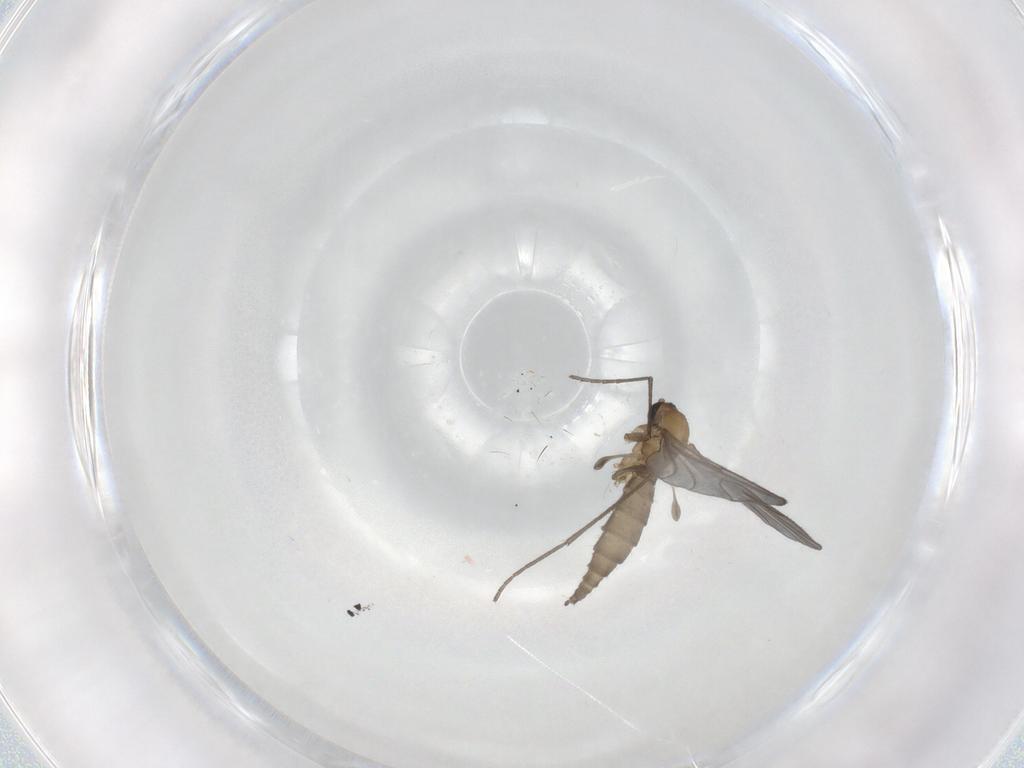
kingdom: Animalia
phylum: Arthropoda
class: Insecta
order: Diptera
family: Sciaridae
